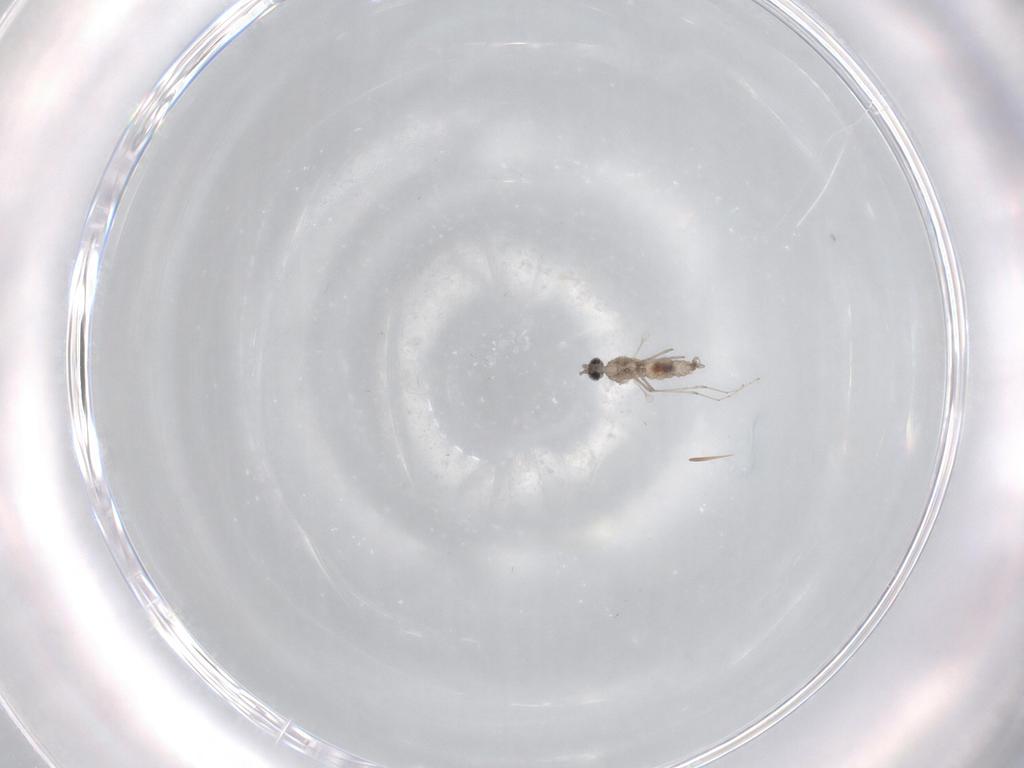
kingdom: Animalia
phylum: Arthropoda
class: Insecta
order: Diptera
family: Cecidomyiidae
